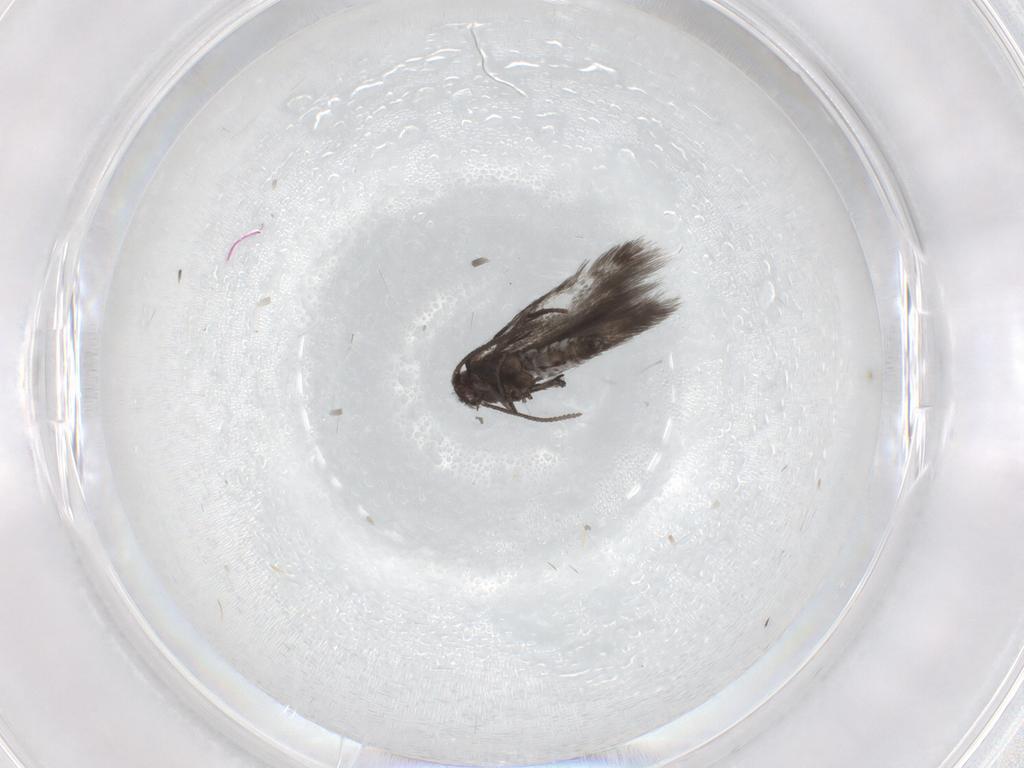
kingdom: Animalia
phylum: Arthropoda
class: Insecta
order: Lepidoptera
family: Nepticulidae
